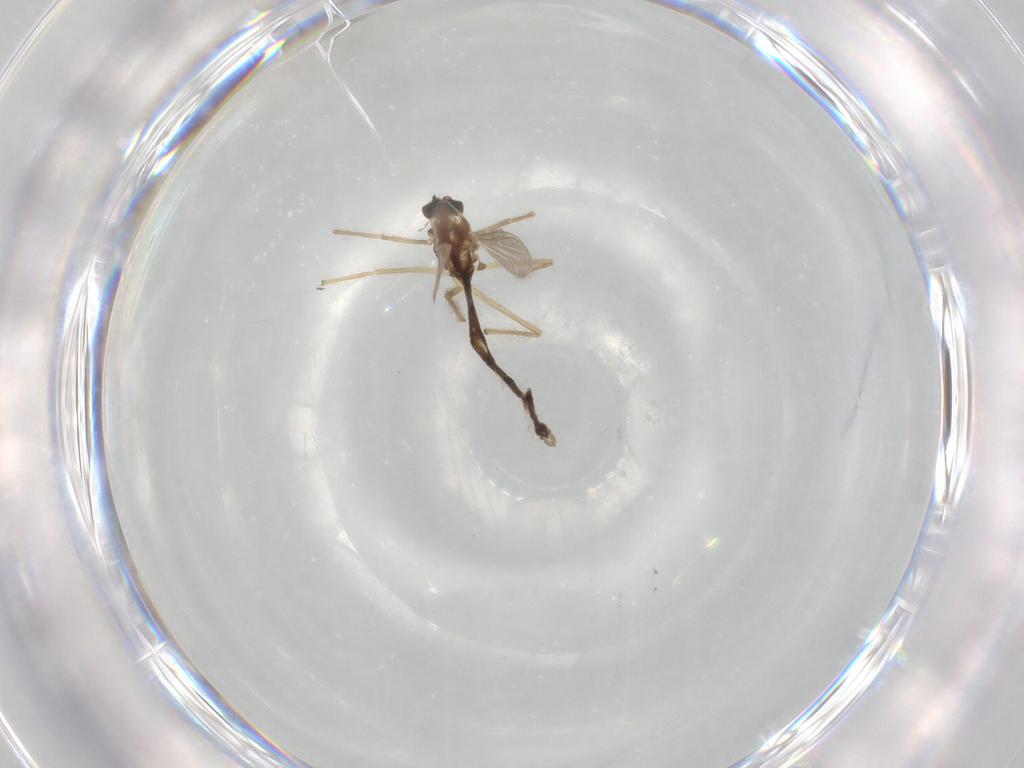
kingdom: Animalia
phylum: Arthropoda
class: Insecta
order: Diptera
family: Chironomidae
